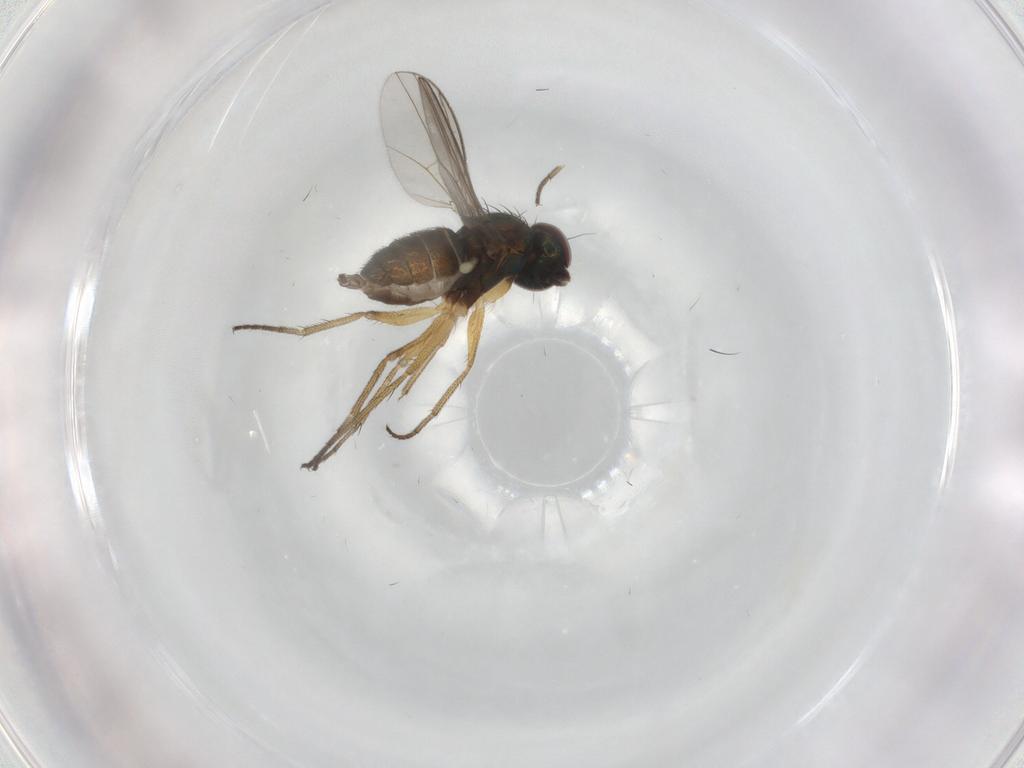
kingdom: Animalia
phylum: Arthropoda
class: Insecta
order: Diptera
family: Dolichopodidae
